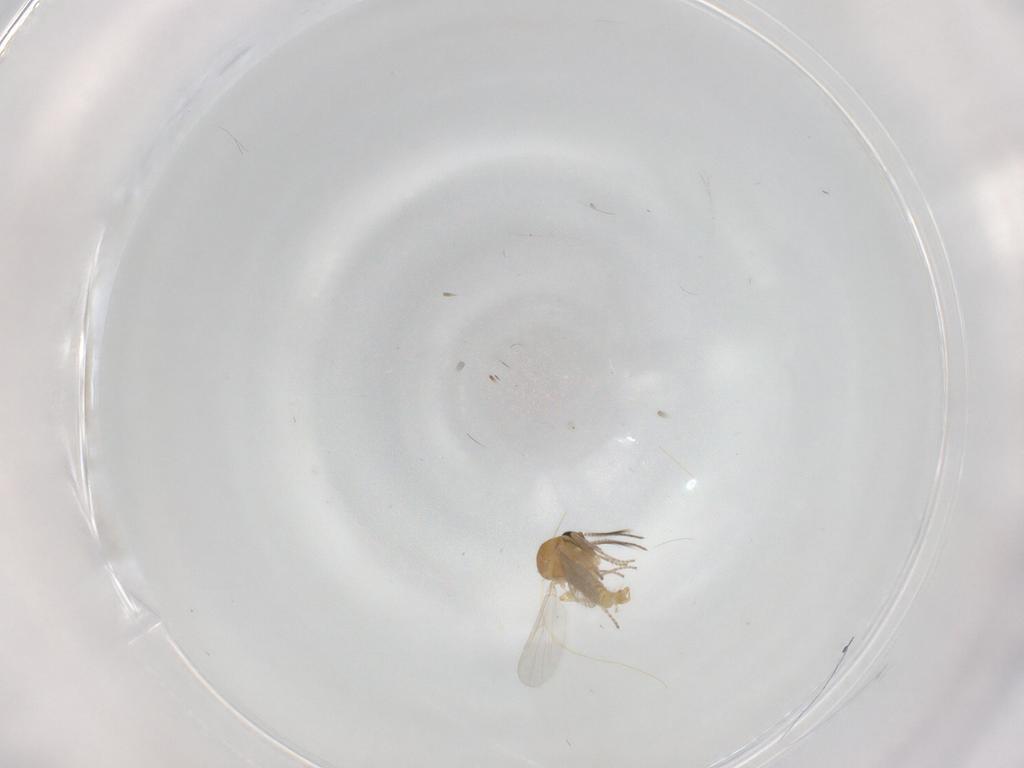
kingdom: Animalia
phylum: Arthropoda
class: Insecta
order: Diptera
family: Ceratopogonidae
